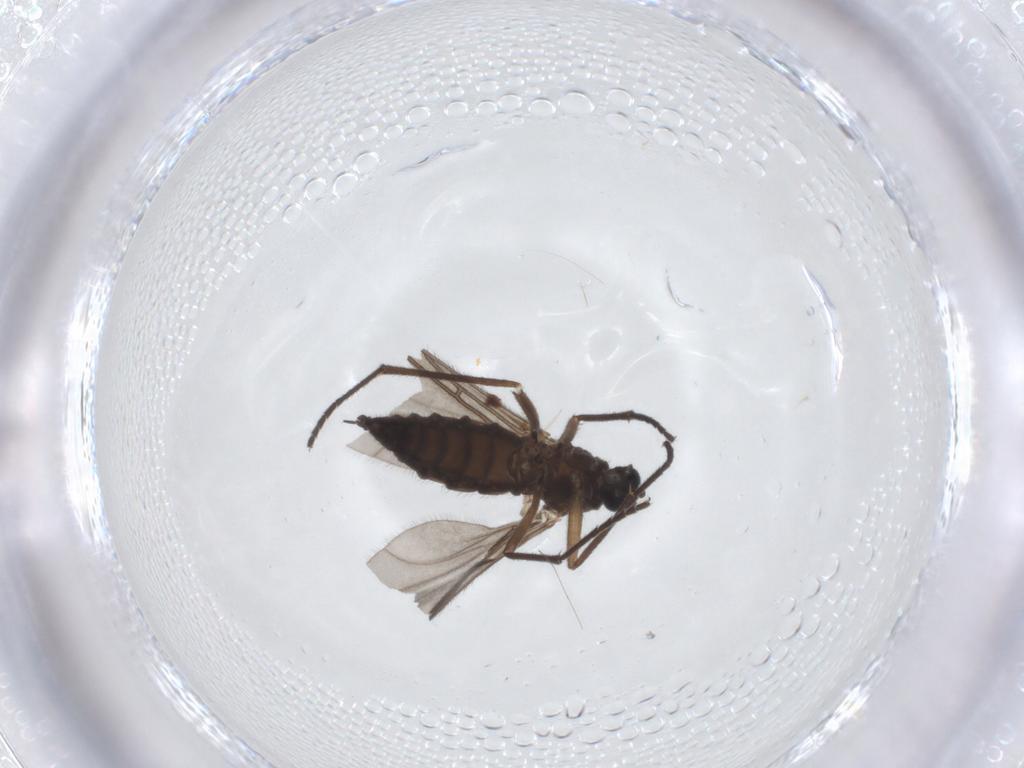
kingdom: Animalia
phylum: Arthropoda
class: Insecta
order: Diptera
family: Sciaridae
